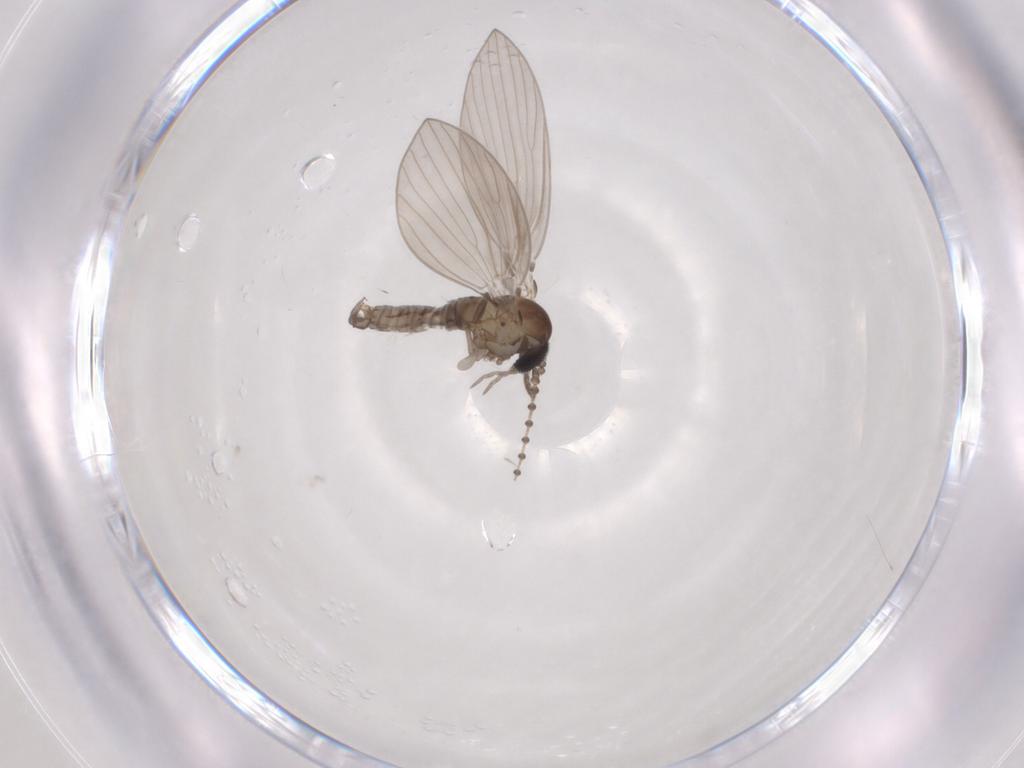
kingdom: Animalia
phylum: Arthropoda
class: Insecta
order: Diptera
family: Psychodidae
